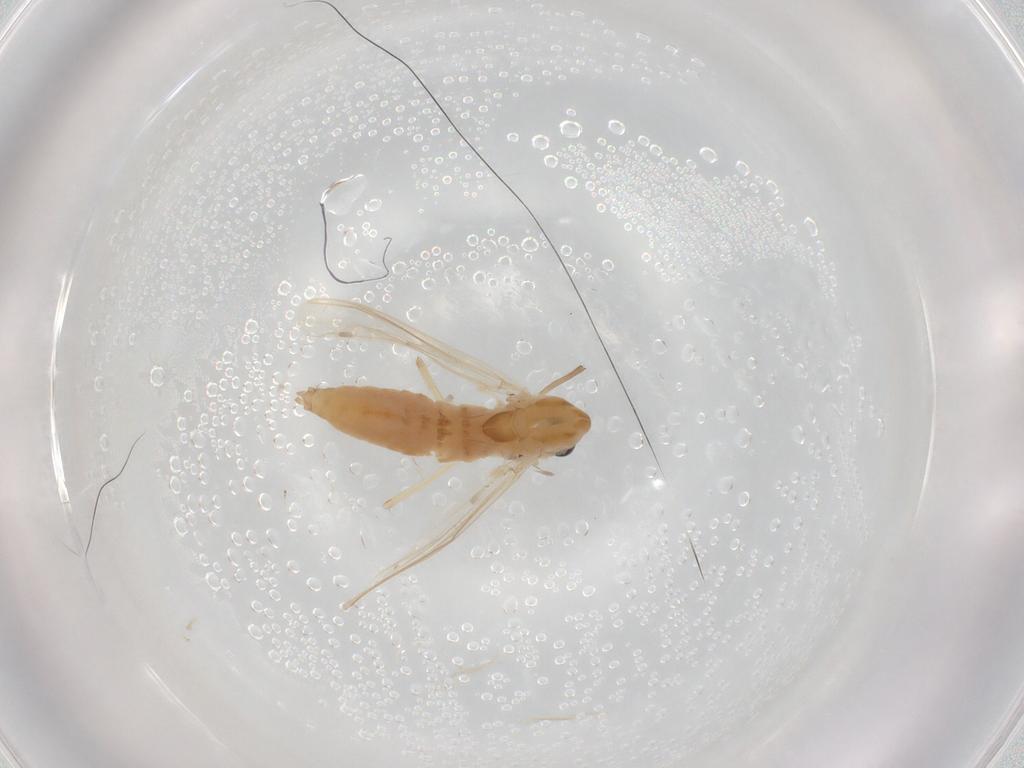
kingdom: Animalia
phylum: Arthropoda
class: Insecta
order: Diptera
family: Chironomidae
